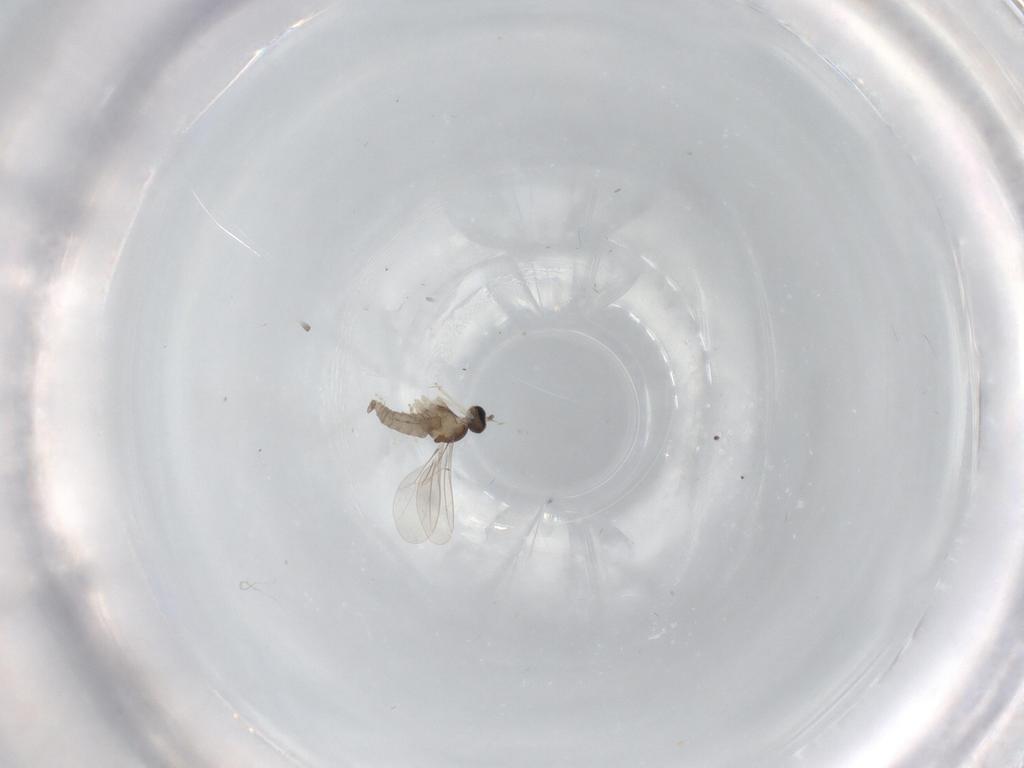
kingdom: Animalia
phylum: Arthropoda
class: Insecta
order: Diptera
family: Cecidomyiidae
